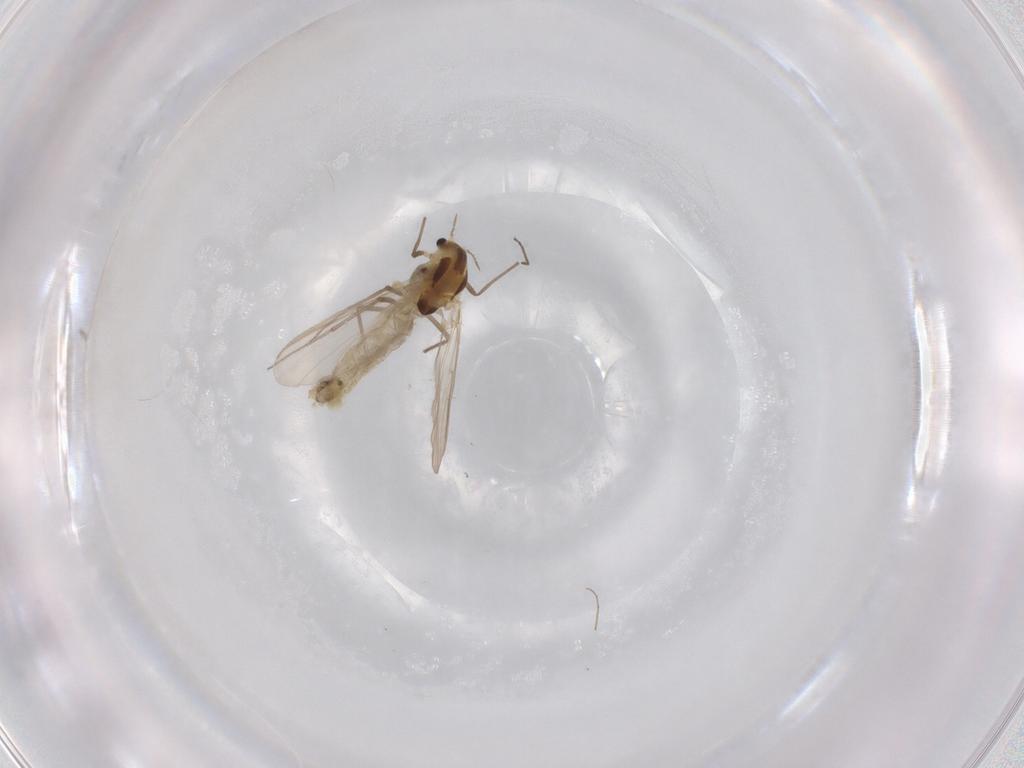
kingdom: Animalia
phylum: Arthropoda
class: Insecta
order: Diptera
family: Chironomidae
